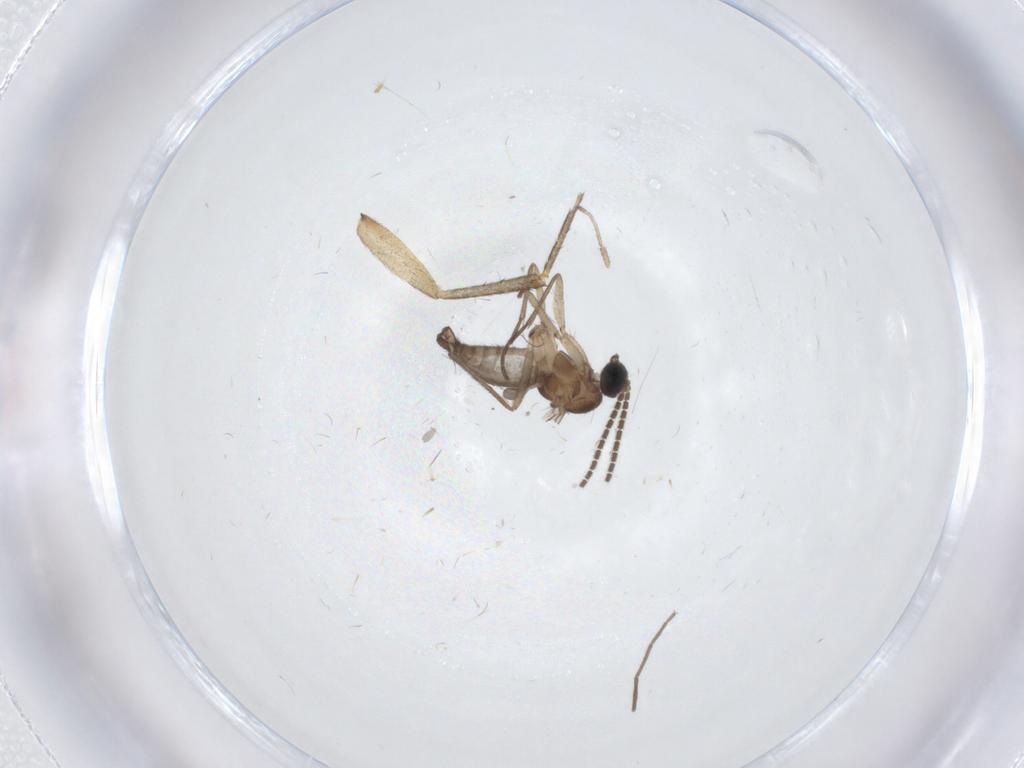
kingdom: Animalia
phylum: Arthropoda
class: Insecta
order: Diptera
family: Mycetophilidae
